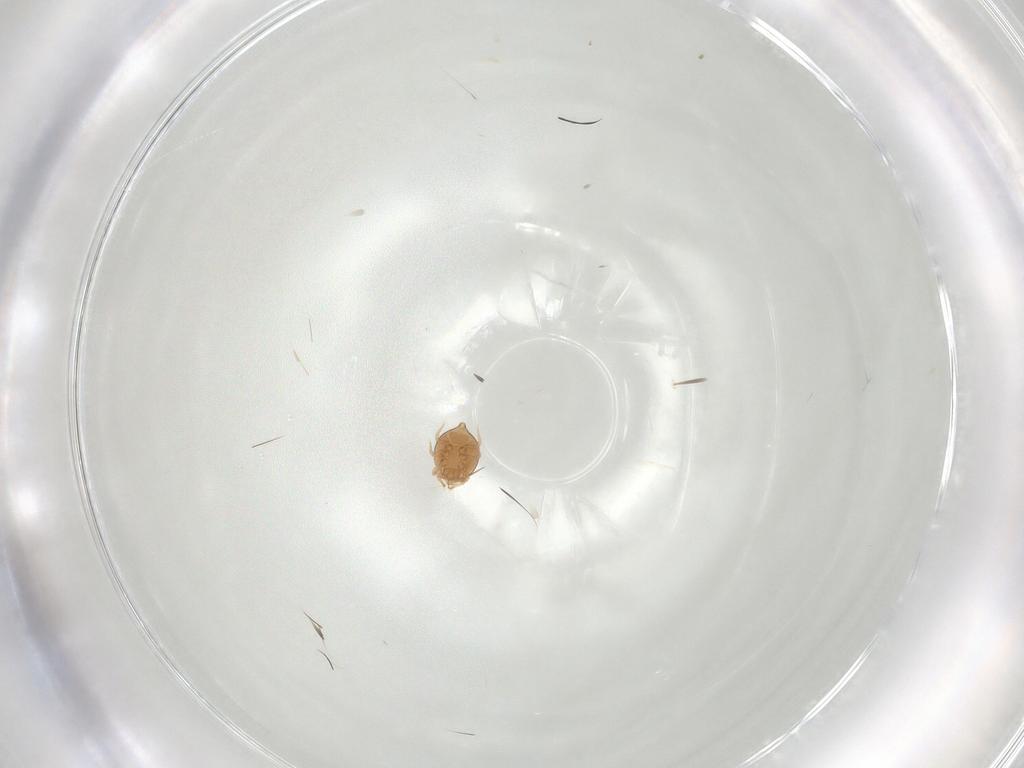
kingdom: Animalia
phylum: Arthropoda
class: Arachnida
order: Mesostigmata
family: Polyaspididae
